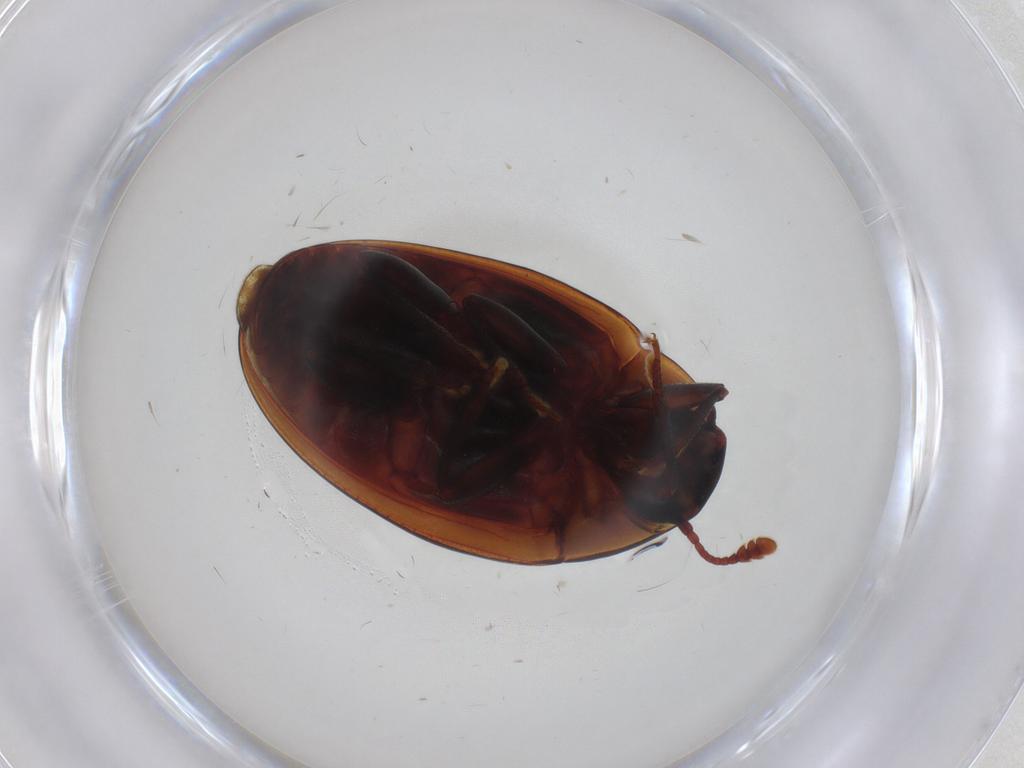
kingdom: Animalia
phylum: Arthropoda
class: Insecta
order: Coleoptera
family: Zopheridae
